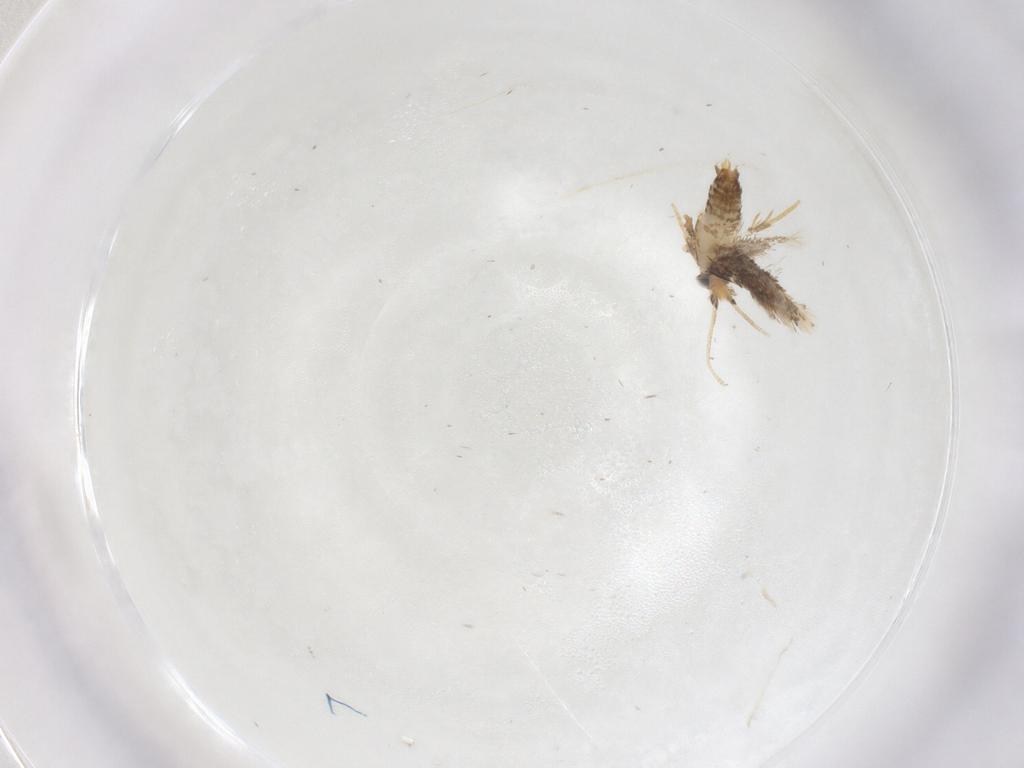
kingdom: Animalia
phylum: Arthropoda
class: Insecta
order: Lepidoptera
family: Nepticulidae
